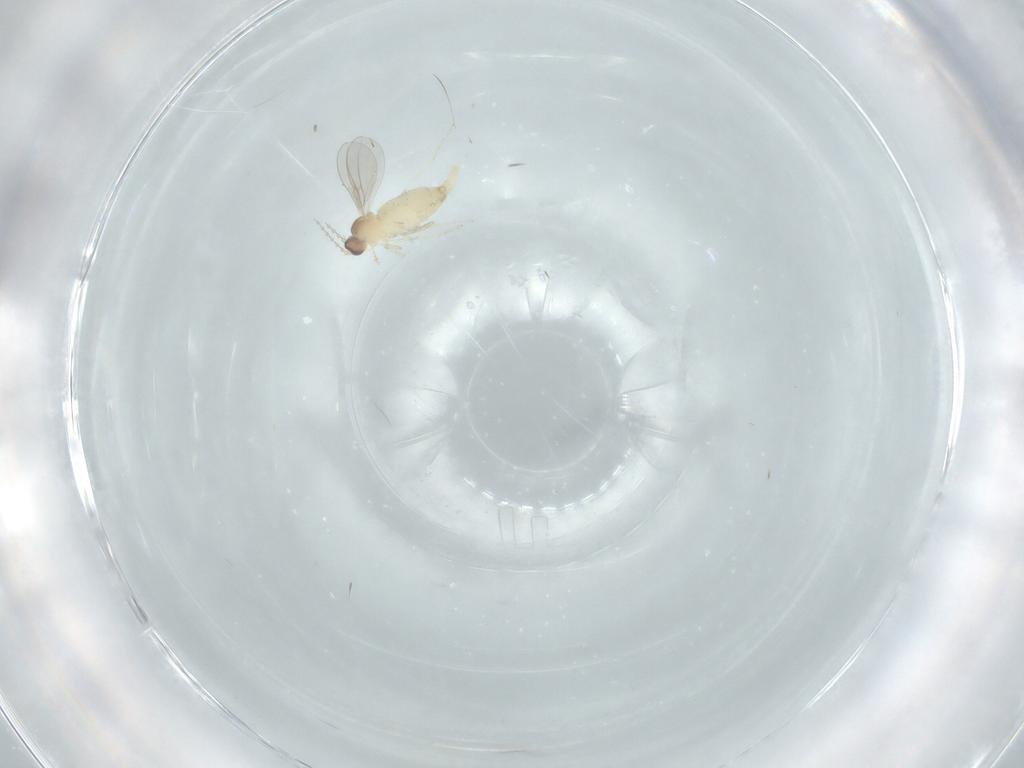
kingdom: Animalia
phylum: Arthropoda
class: Insecta
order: Diptera
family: Cecidomyiidae
